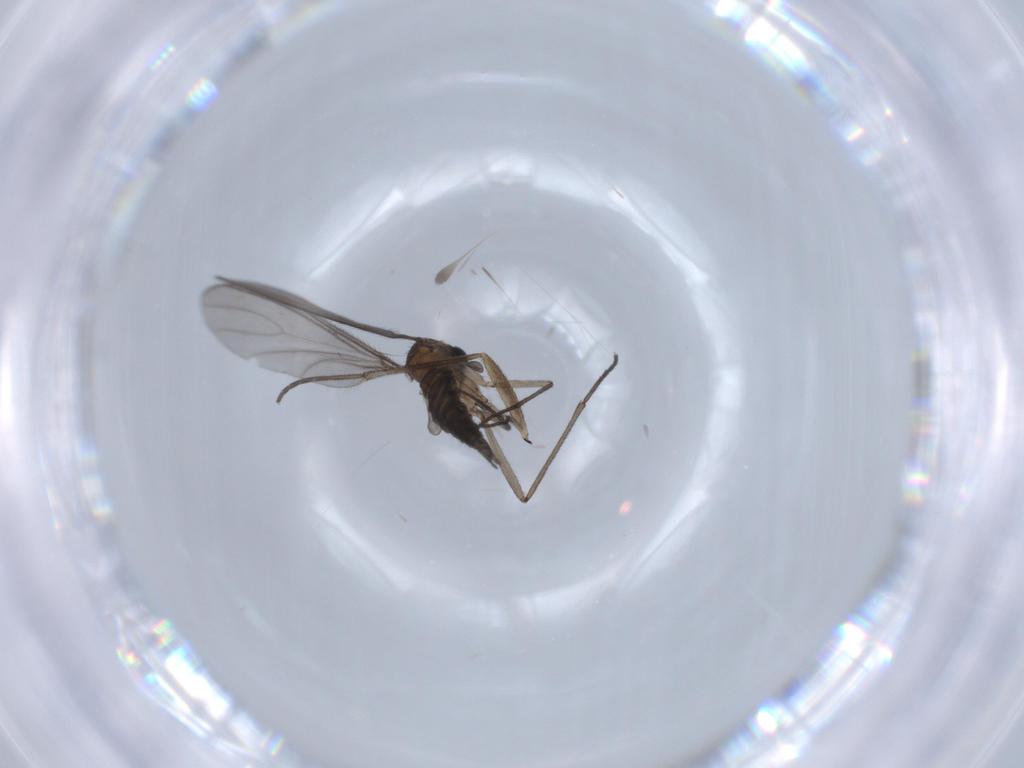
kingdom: Animalia
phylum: Arthropoda
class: Insecta
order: Diptera
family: Sciaridae
